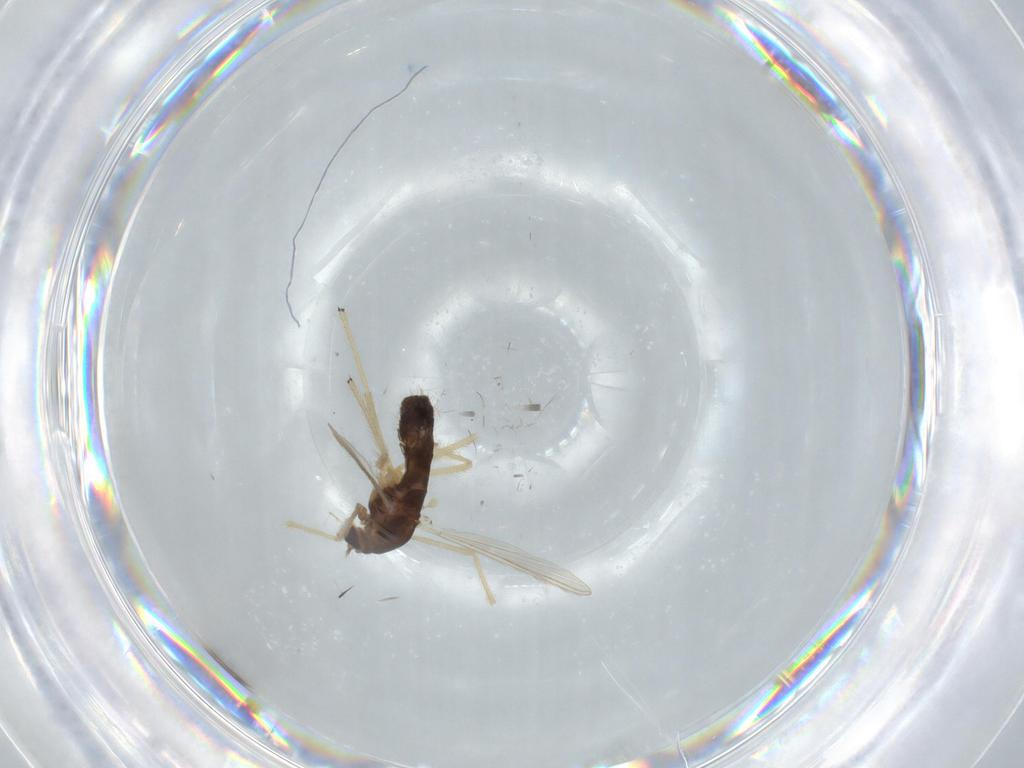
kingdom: Animalia
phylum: Arthropoda
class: Insecta
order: Diptera
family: Chironomidae
